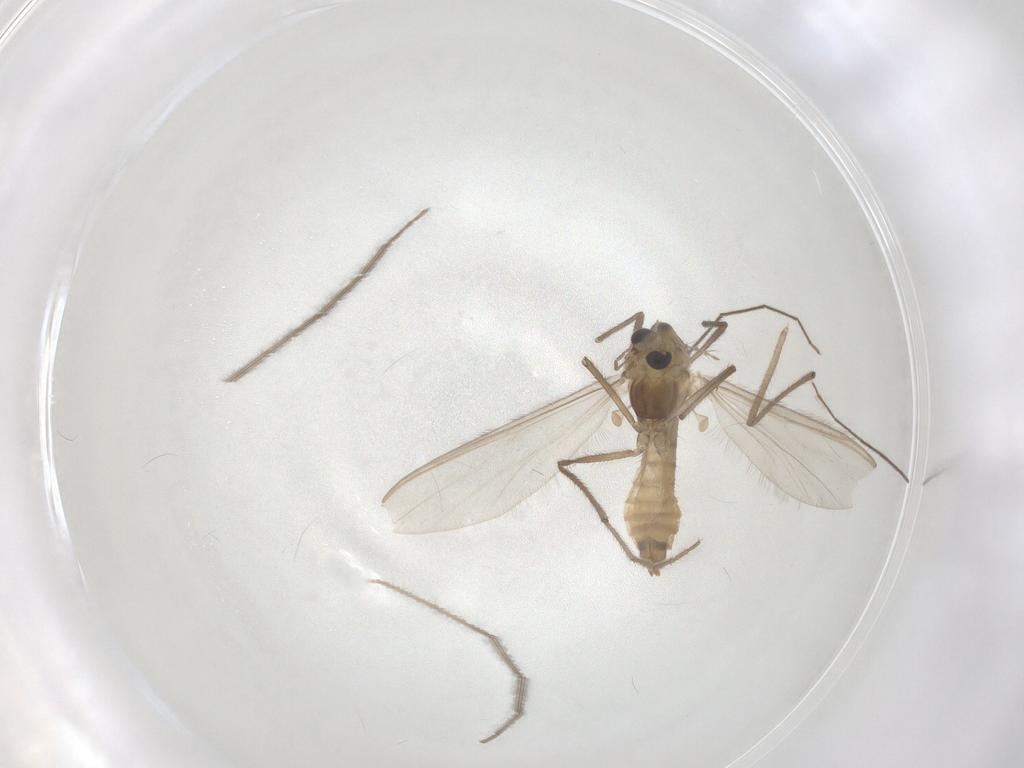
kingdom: Animalia
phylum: Arthropoda
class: Insecta
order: Diptera
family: Chironomidae
